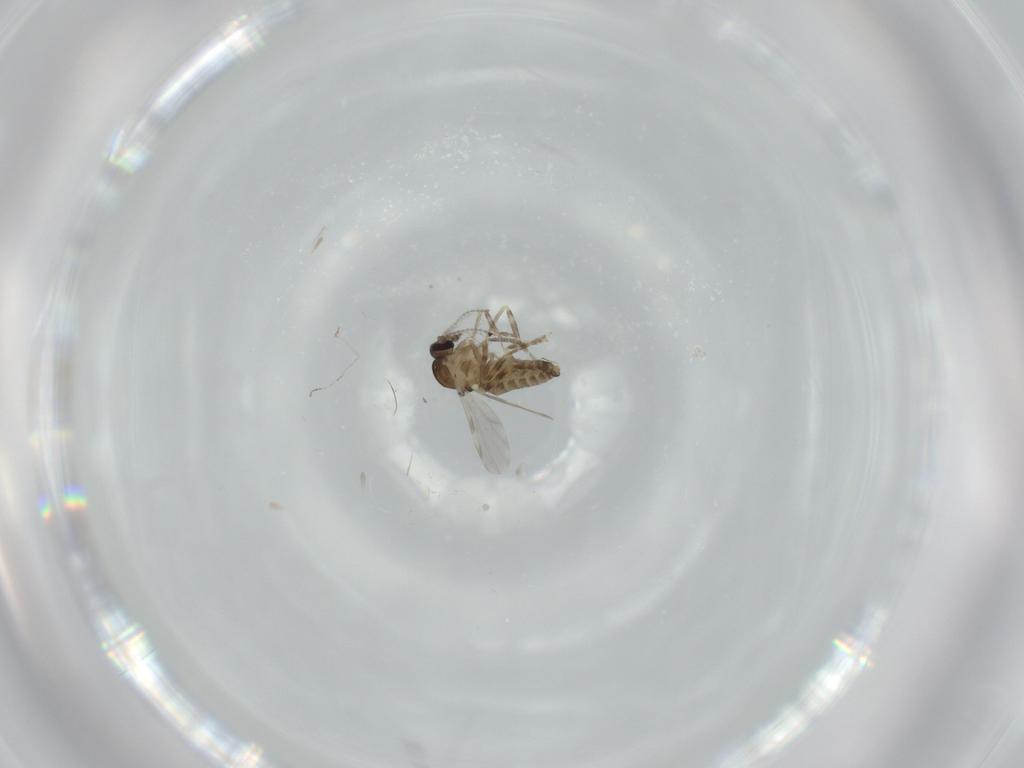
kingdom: Animalia
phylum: Arthropoda
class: Insecta
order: Diptera
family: Ceratopogonidae
